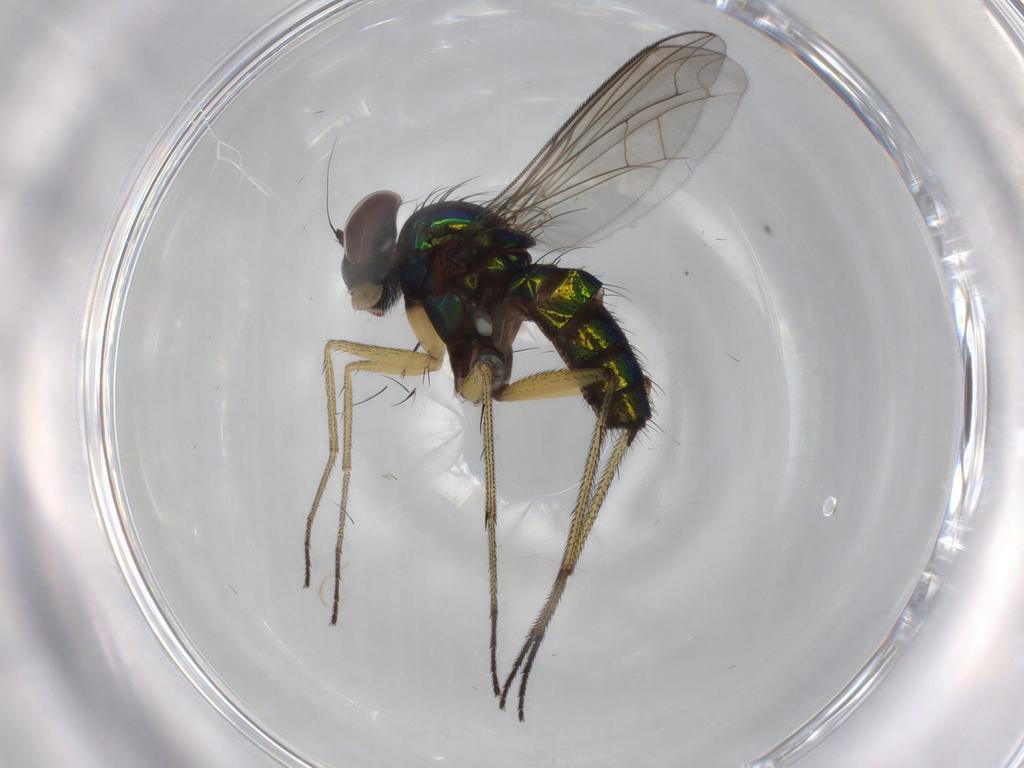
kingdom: Animalia
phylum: Arthropoda
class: Insecta
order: Diptera
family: Dolichopodidae
